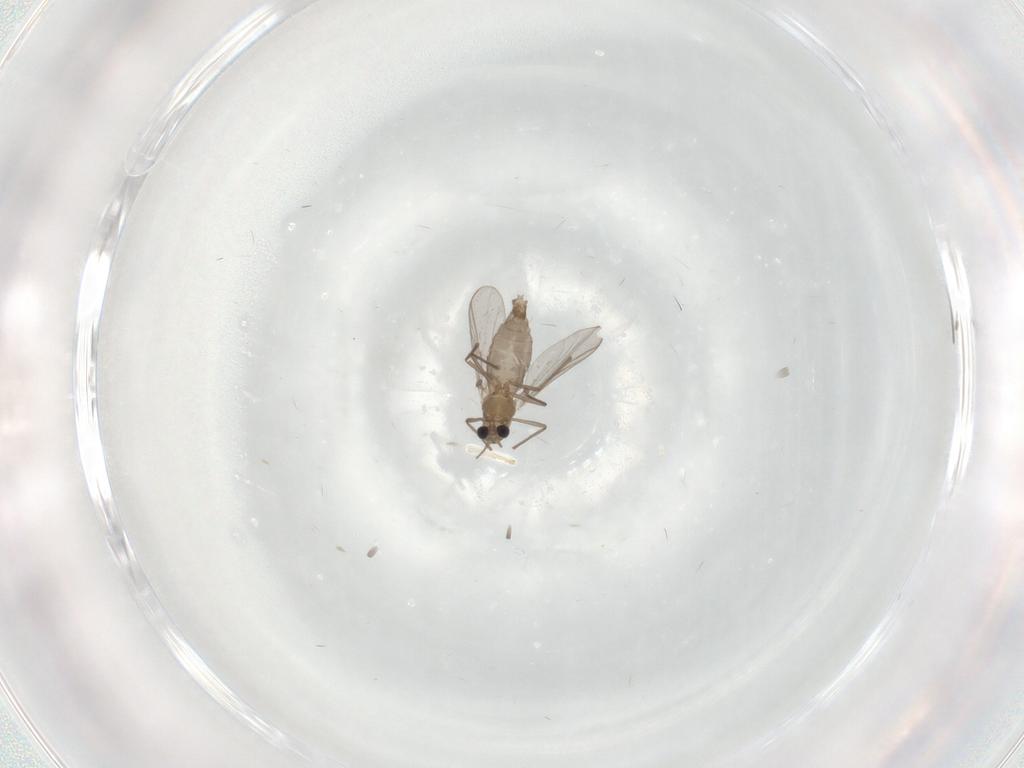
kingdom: Animalia
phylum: Arthropoda
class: Insecta
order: Diptera
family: Chironomidae
